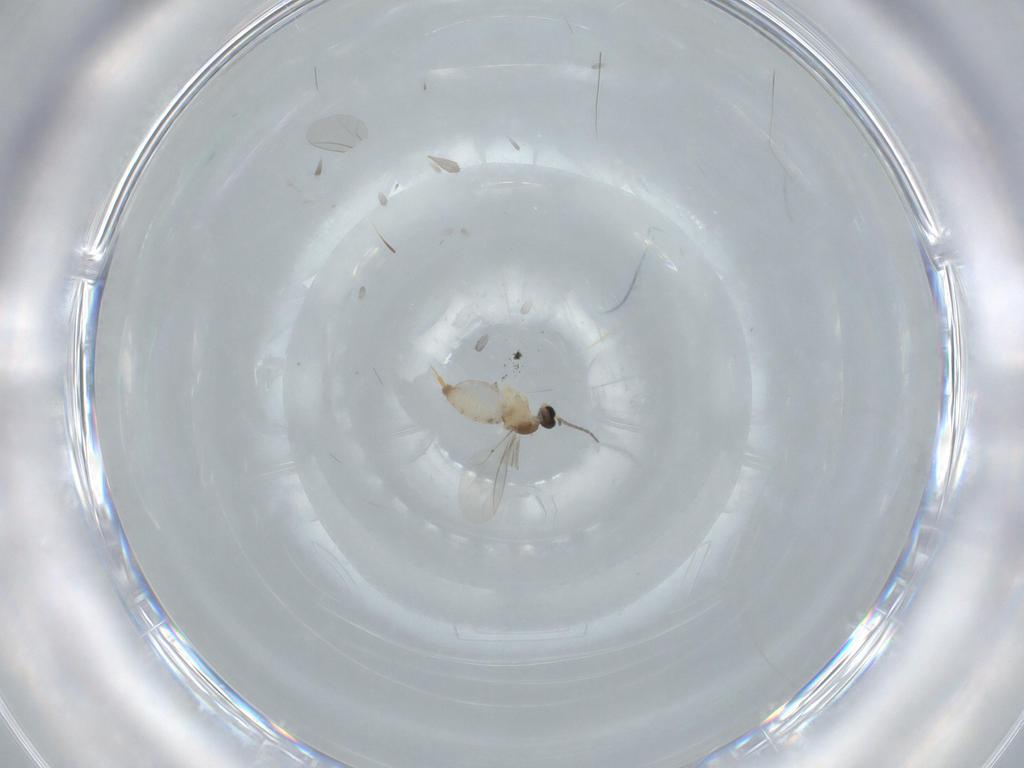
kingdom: Animalia
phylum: Arthropoda
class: Insecta
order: Diptera
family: Cecidomyiidae
